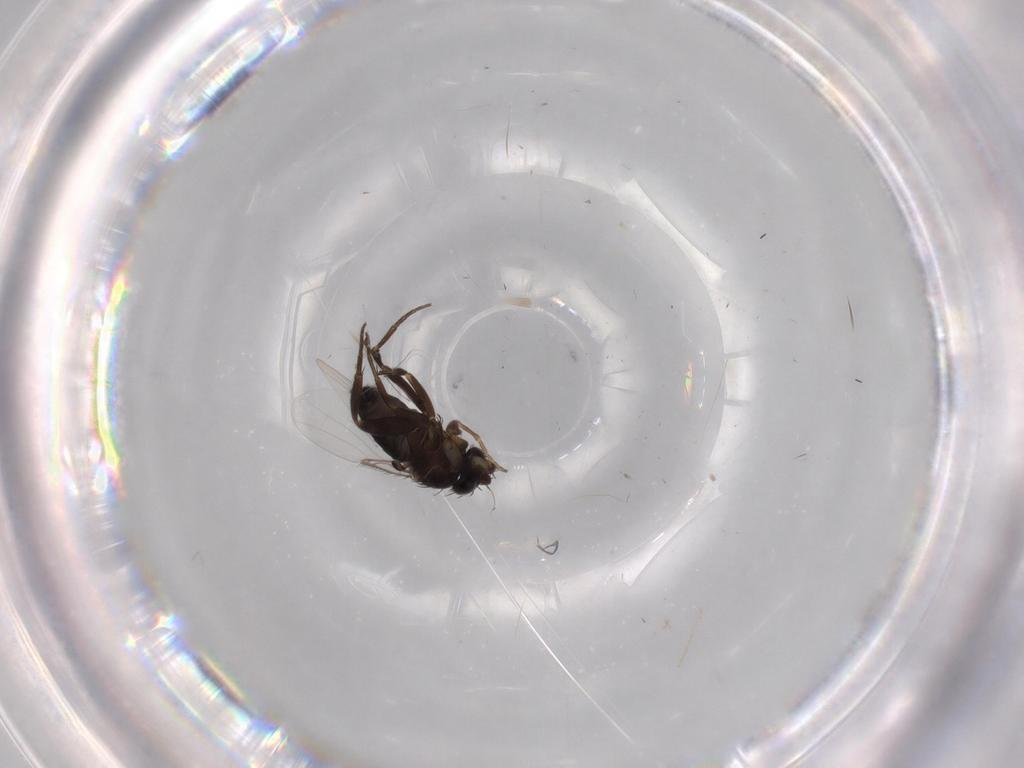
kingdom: Animalia
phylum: Arthropoda
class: Insecta
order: Diptera
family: Phoridae
